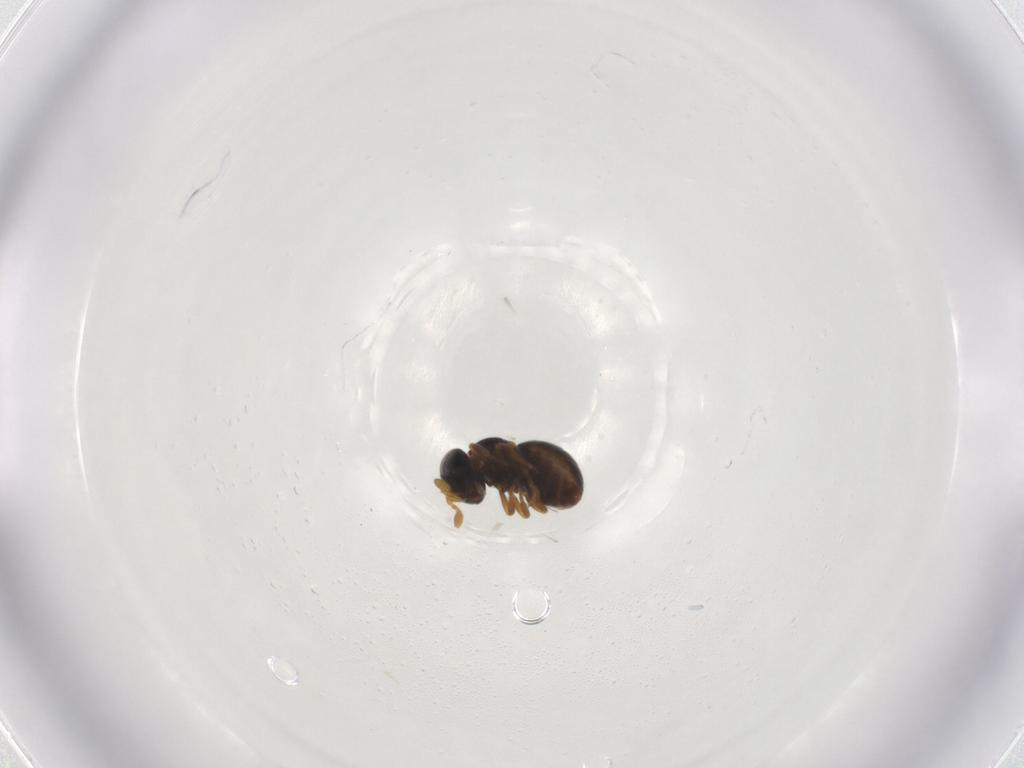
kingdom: Animalia
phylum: Arthropoda
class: Insecta
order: Hymenoptera
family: Scelionidae
